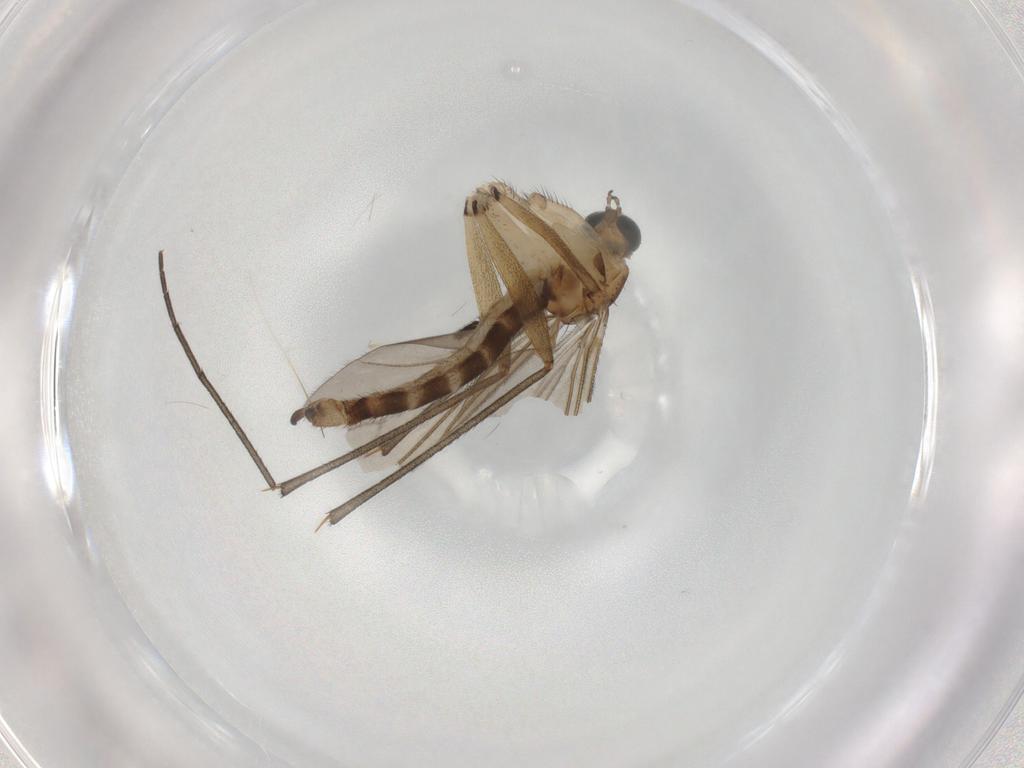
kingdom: Animalia
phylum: Arthropoda
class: Insecta
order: Diptera
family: Sciaridae
